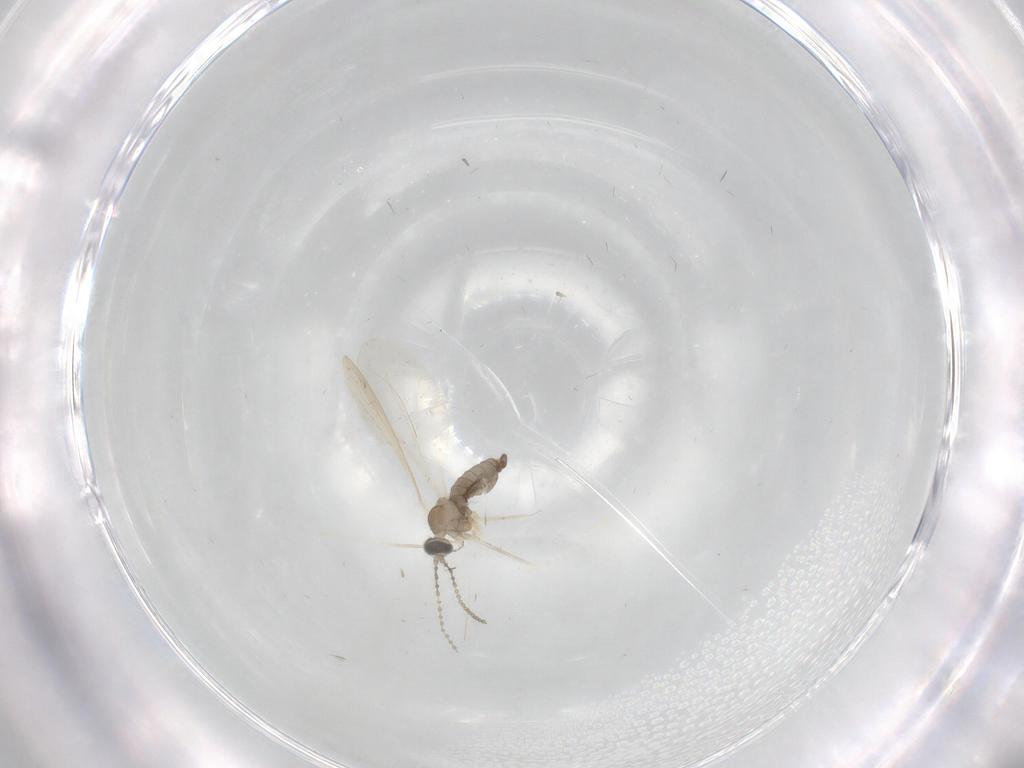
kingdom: Animalia
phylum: Arthropoda
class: Insecta
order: Diptera
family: Cecidomyiidae
